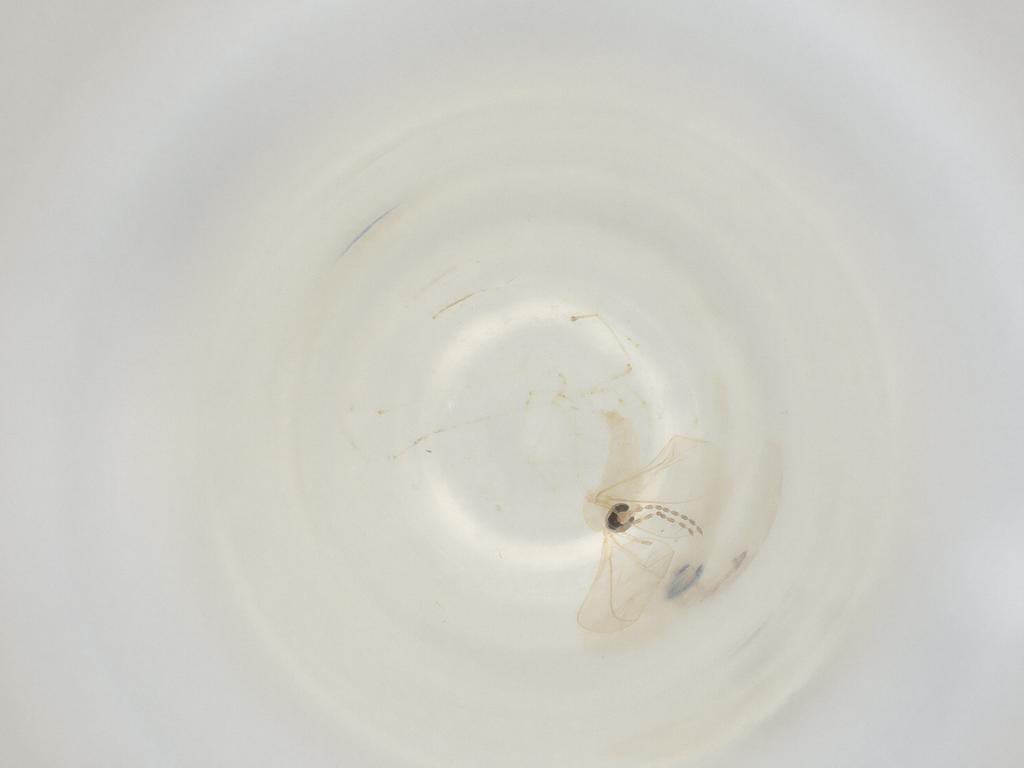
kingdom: Animalia
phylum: Arthropoda
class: Insecta
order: Diptera
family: Cecidomyiidae
